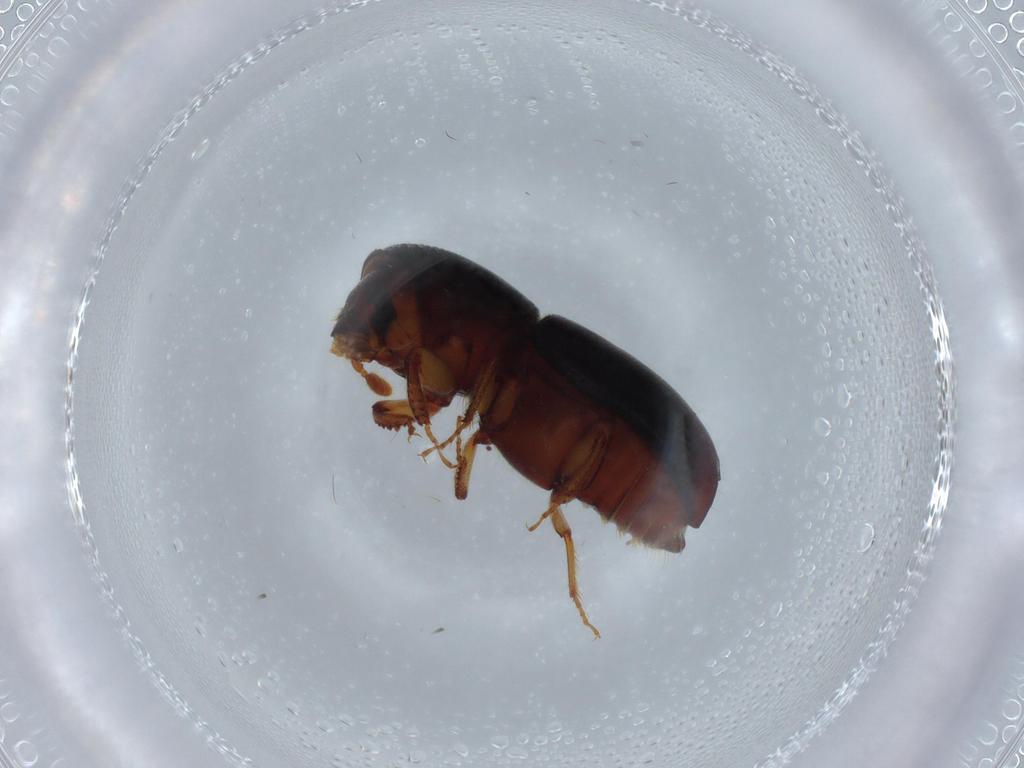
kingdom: Animalia
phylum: Arthropoda
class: Insecta
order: Coleoptera
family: Curculionidae
